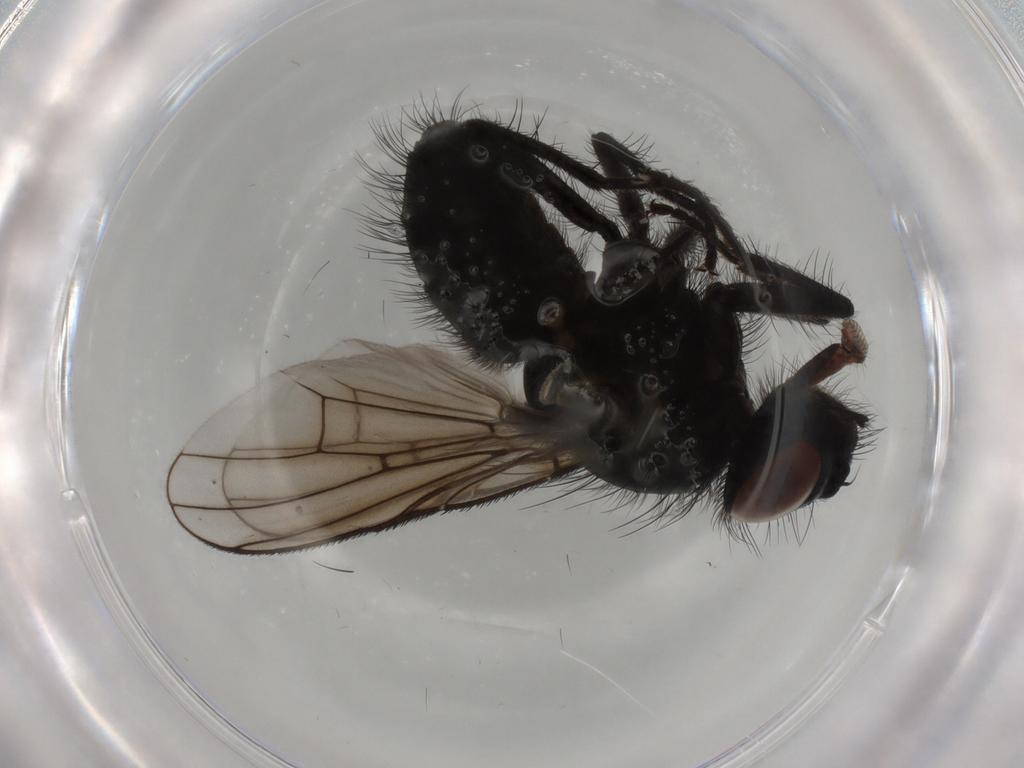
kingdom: Animalia
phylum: Arthropoda
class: Insecta
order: Diptera
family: Muscidae
